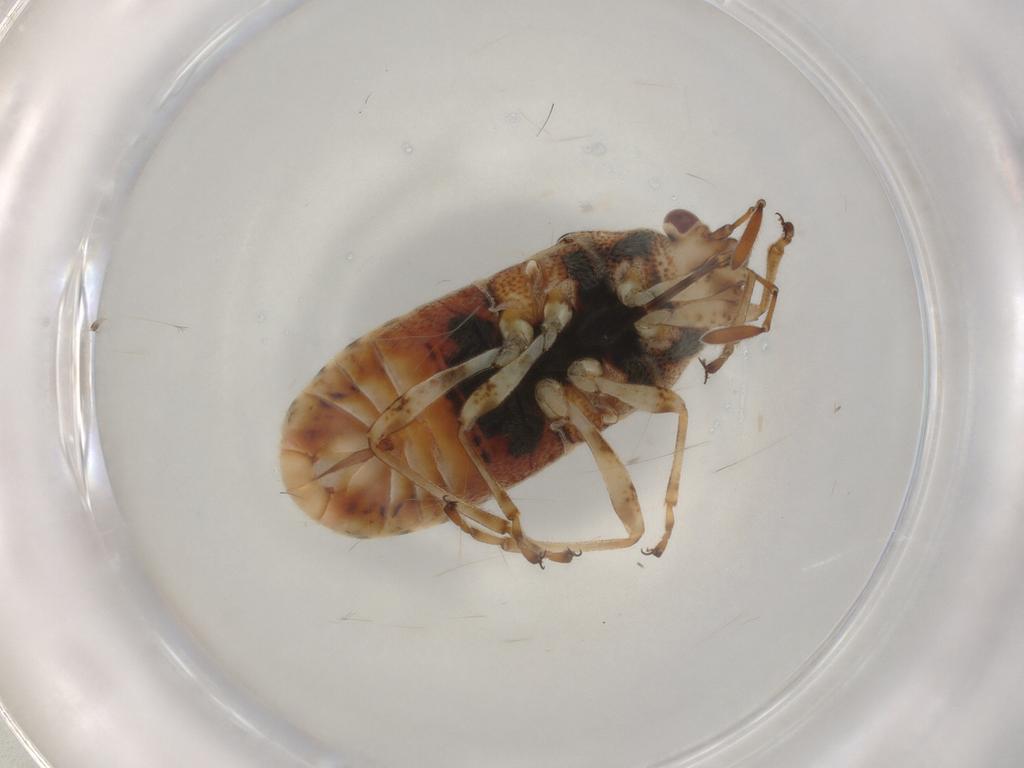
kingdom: Animalia
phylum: Arthropoda
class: Insecta
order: Hemiptera
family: Lygaeidae
